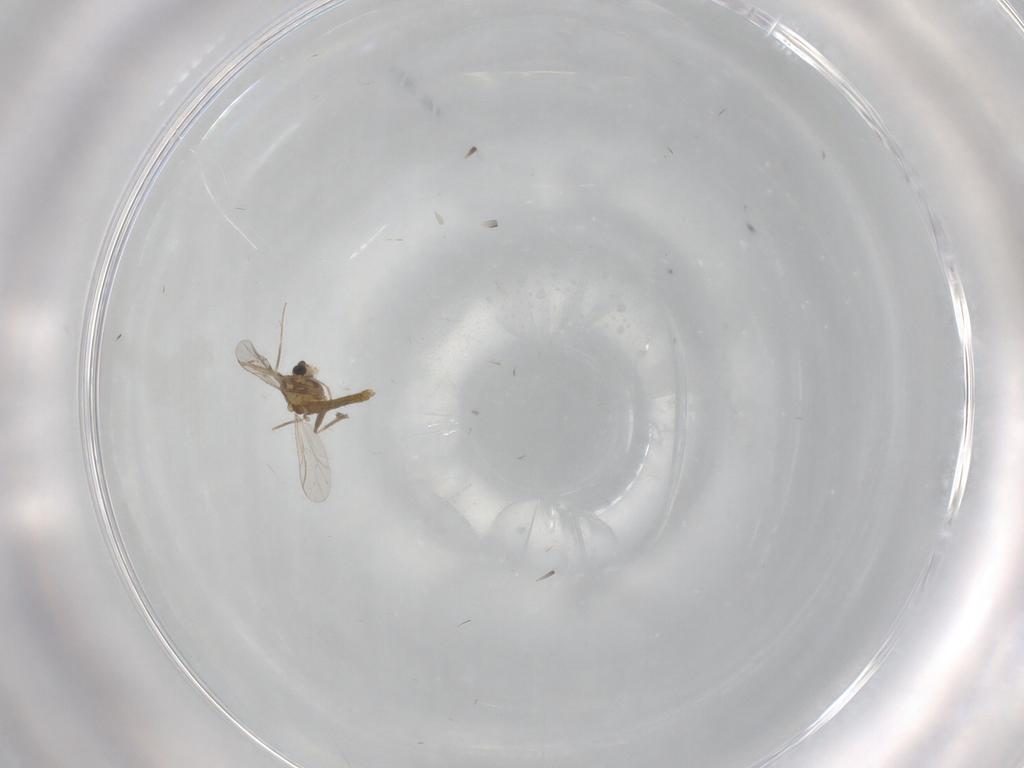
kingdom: Animalia
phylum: Arthropoda
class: Insecta
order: Diptera
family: Chironomidae
